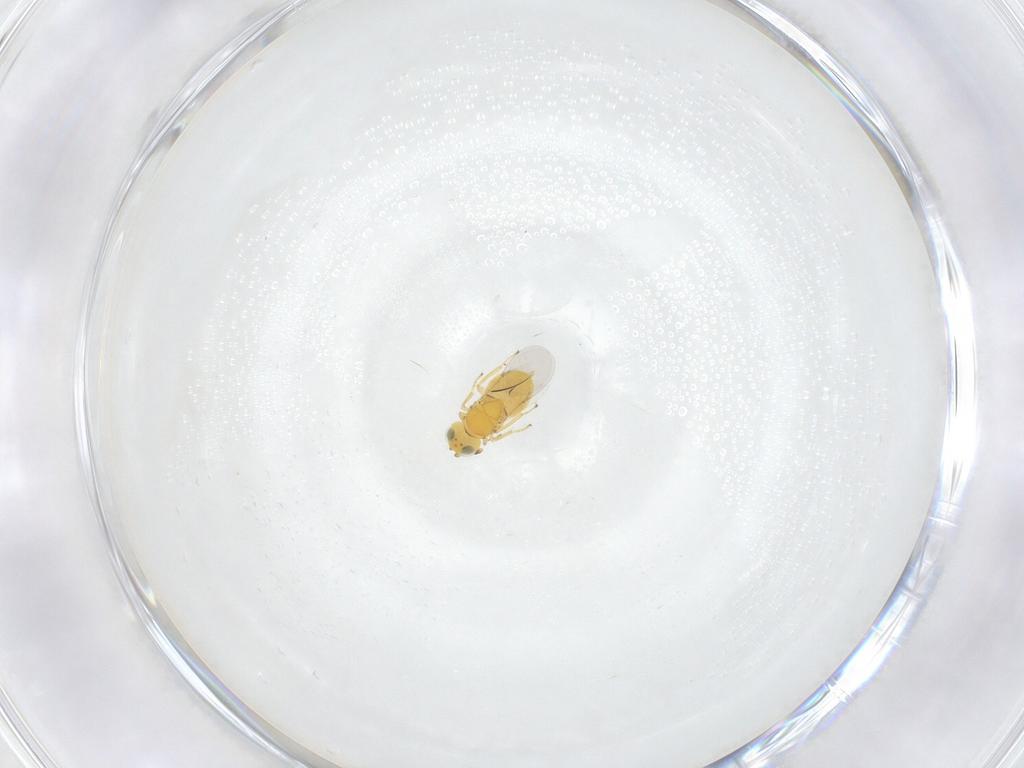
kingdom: Animalia
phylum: Arthropoda
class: Insecta
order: Hymenoptera
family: Encyrtidae
